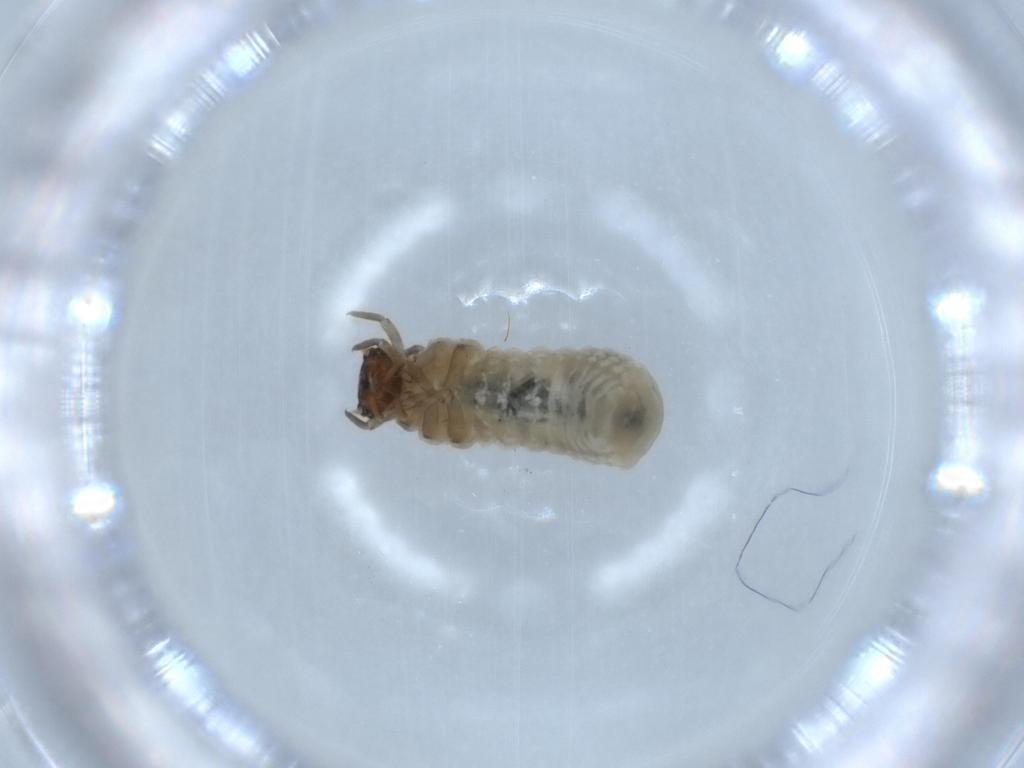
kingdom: Animalia
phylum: Arthropoda
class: Insecta
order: Coleoptera
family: Chrysomelidae
